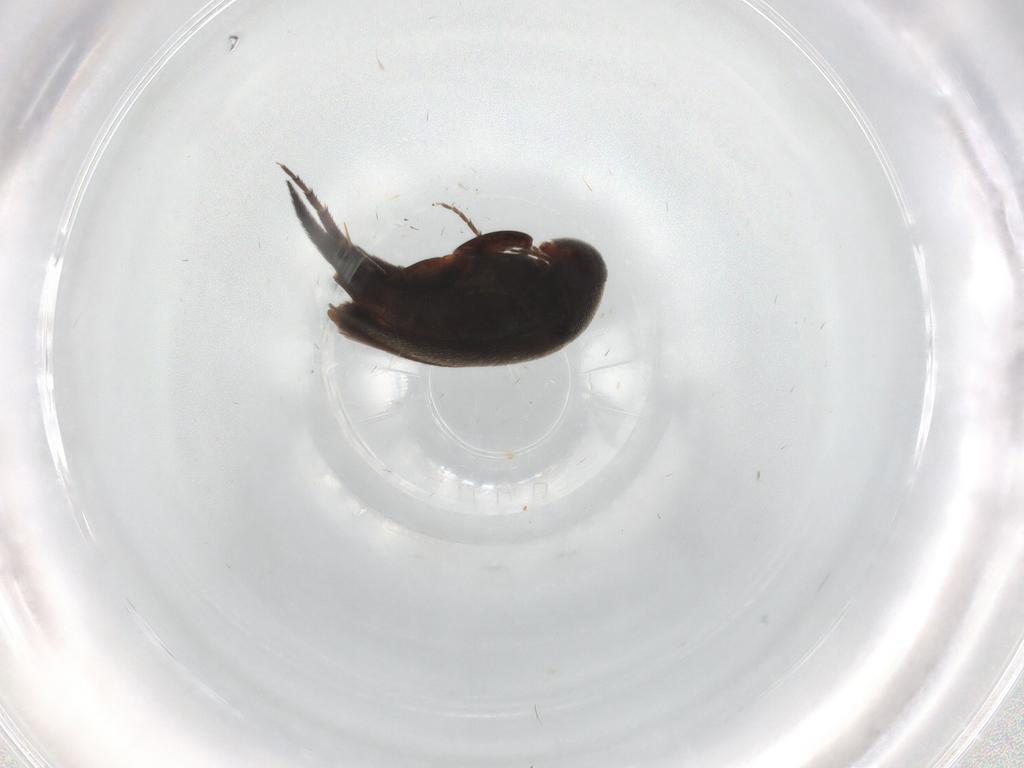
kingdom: Animalia
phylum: Arthropoda
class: Insecta
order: Coleoptera
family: Mordellidae
